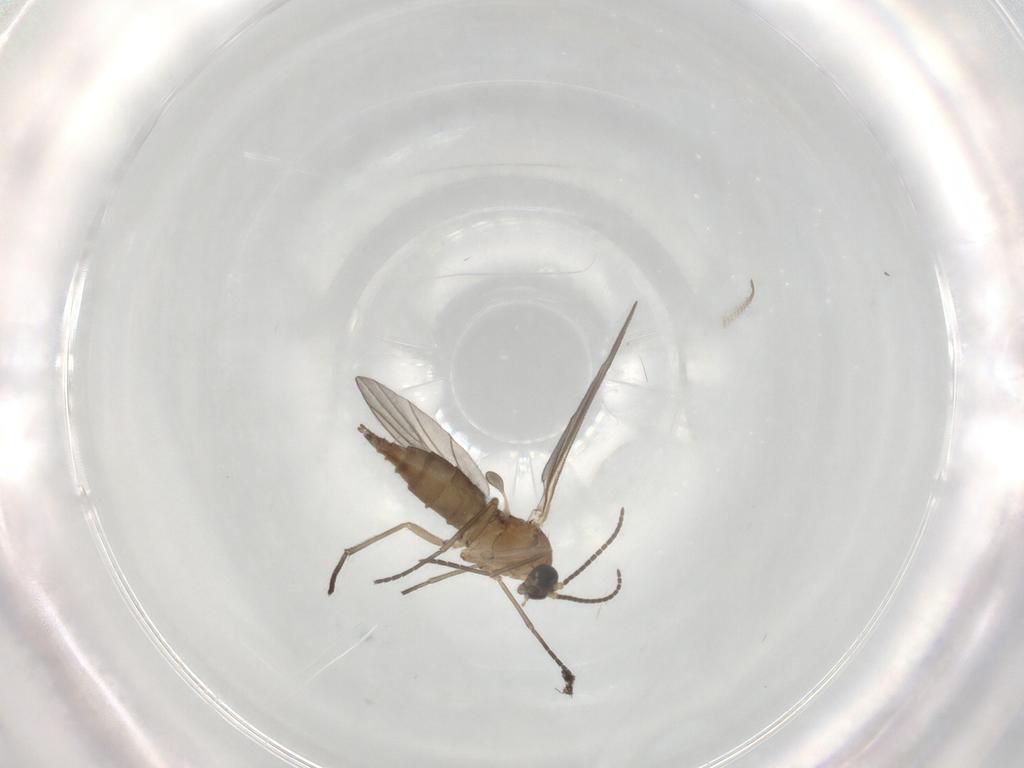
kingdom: Animalia
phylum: Arthropoda
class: Insecta
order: Diptera
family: Sciaridae
